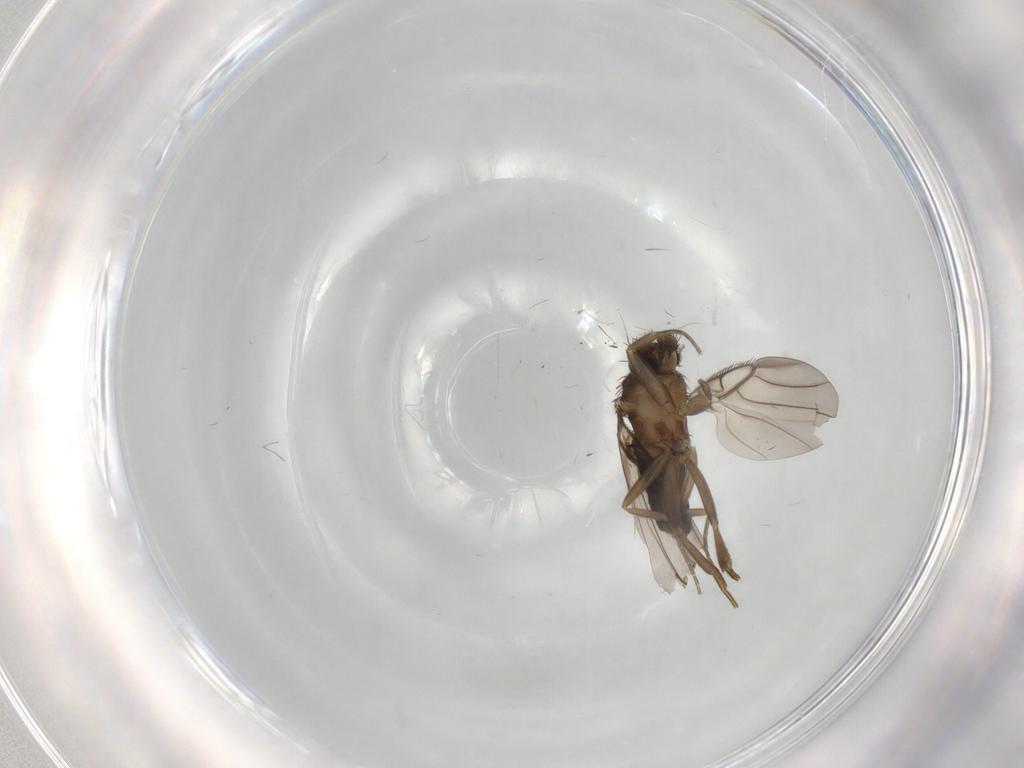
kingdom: Animalia
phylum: Arthropoda
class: Insecta
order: Diptera
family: Phoridae
